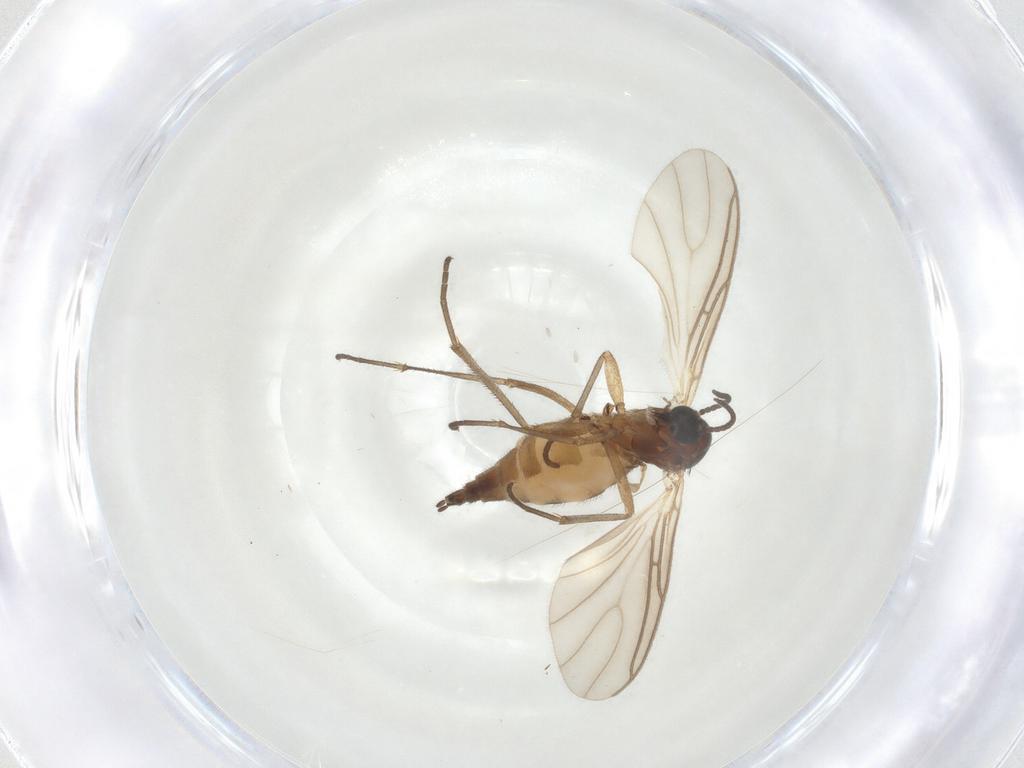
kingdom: Animalia
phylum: Arthropoda
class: Insecta
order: Diptera
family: Sciaridae
